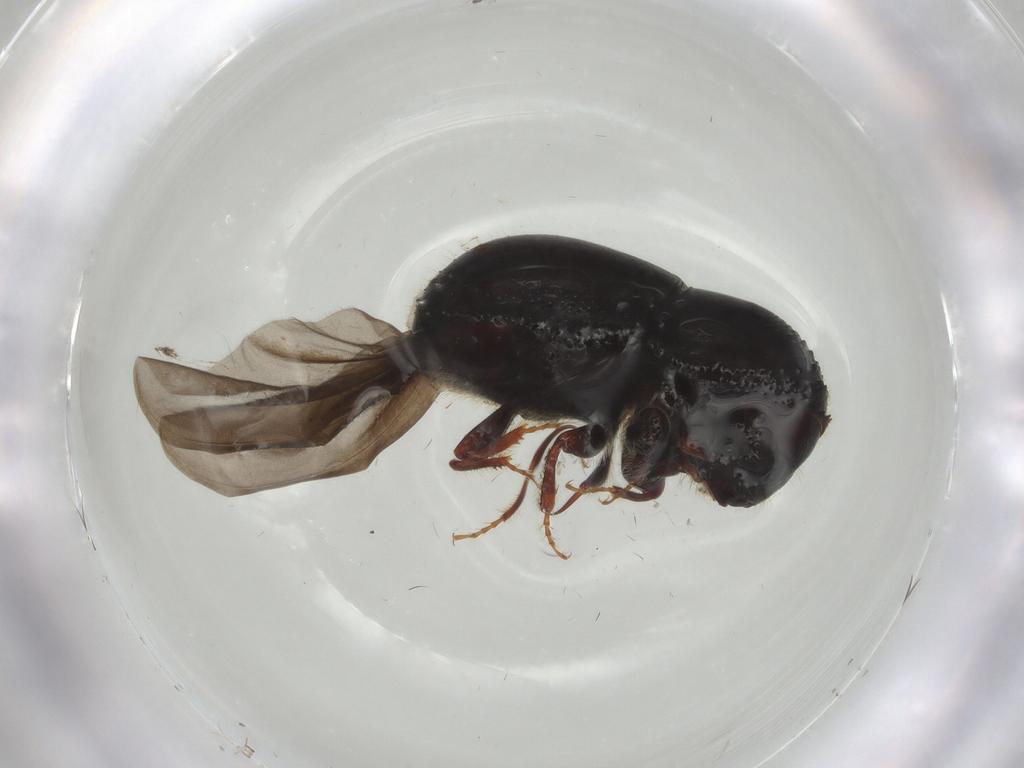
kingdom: Animalia
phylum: Arthropoda
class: Insecta
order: Coleoptera
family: Curculionidae
